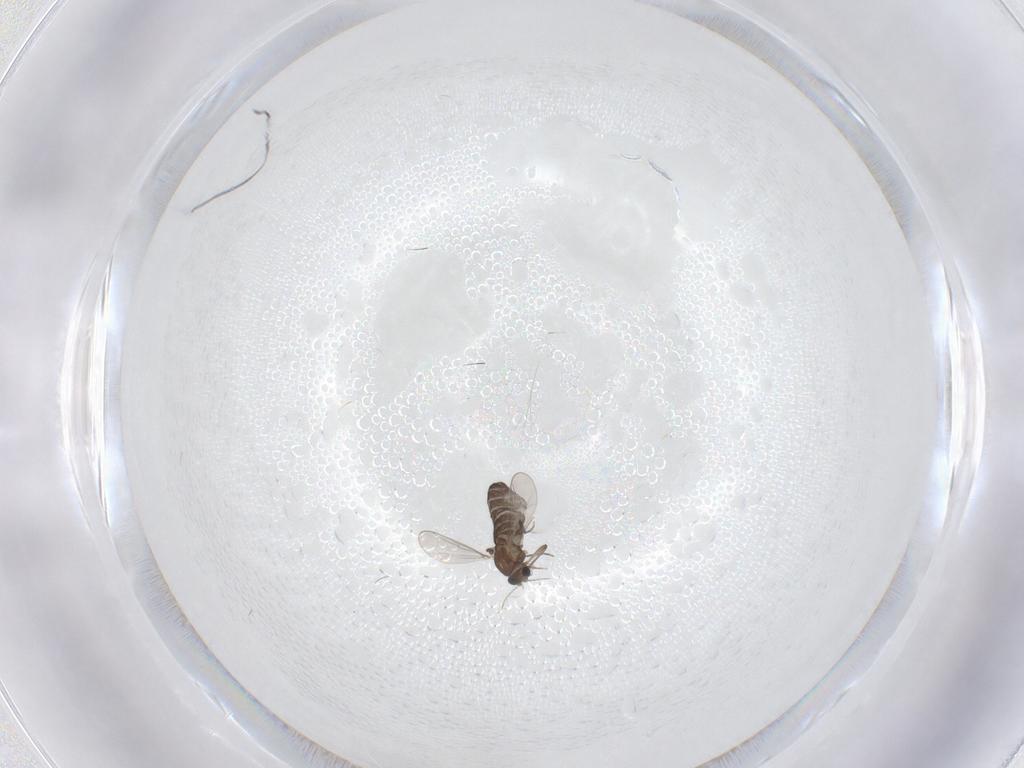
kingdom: Animalia
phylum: Arthropoda
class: Insecta
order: Diptera
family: Chironomidae
